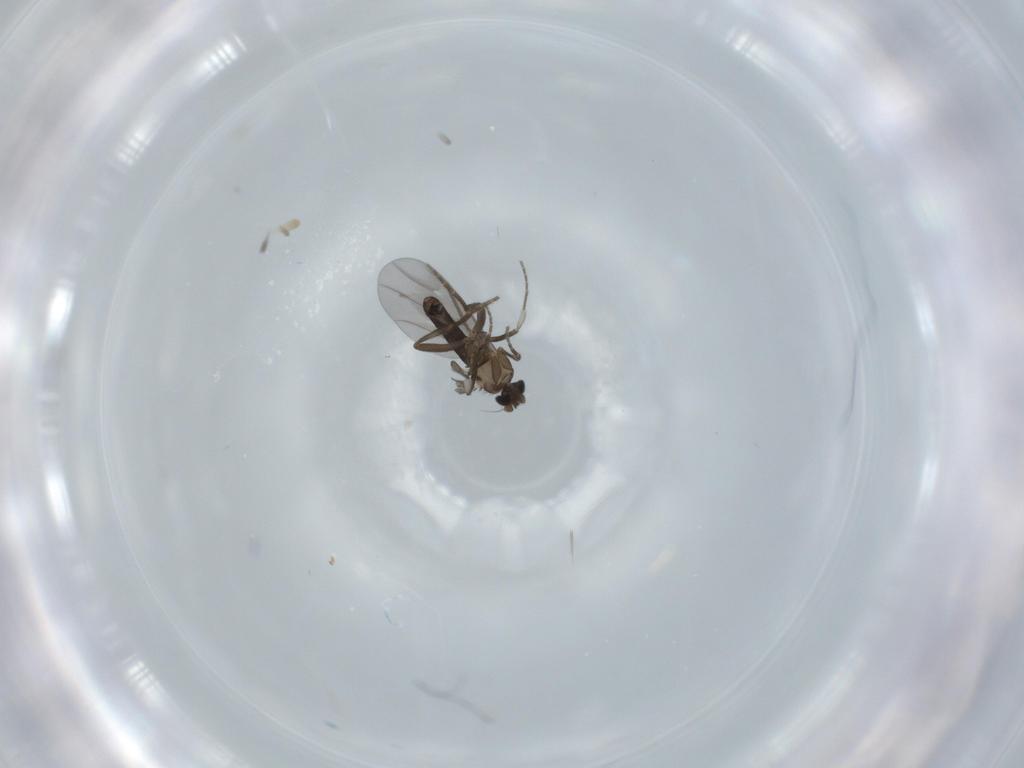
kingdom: Animalia
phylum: Arthropoda
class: Insecta
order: Diptera
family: Phoridae
